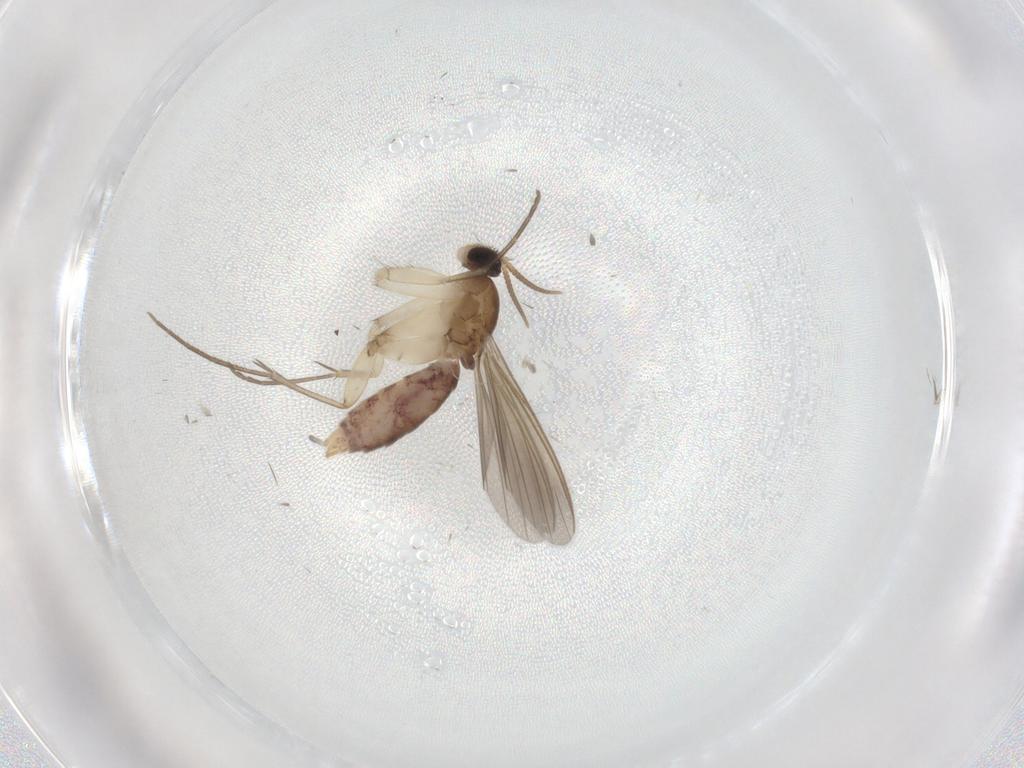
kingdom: Animalia
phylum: Arthropoda
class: Insecta
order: Diptera
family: Mycetophilidae
